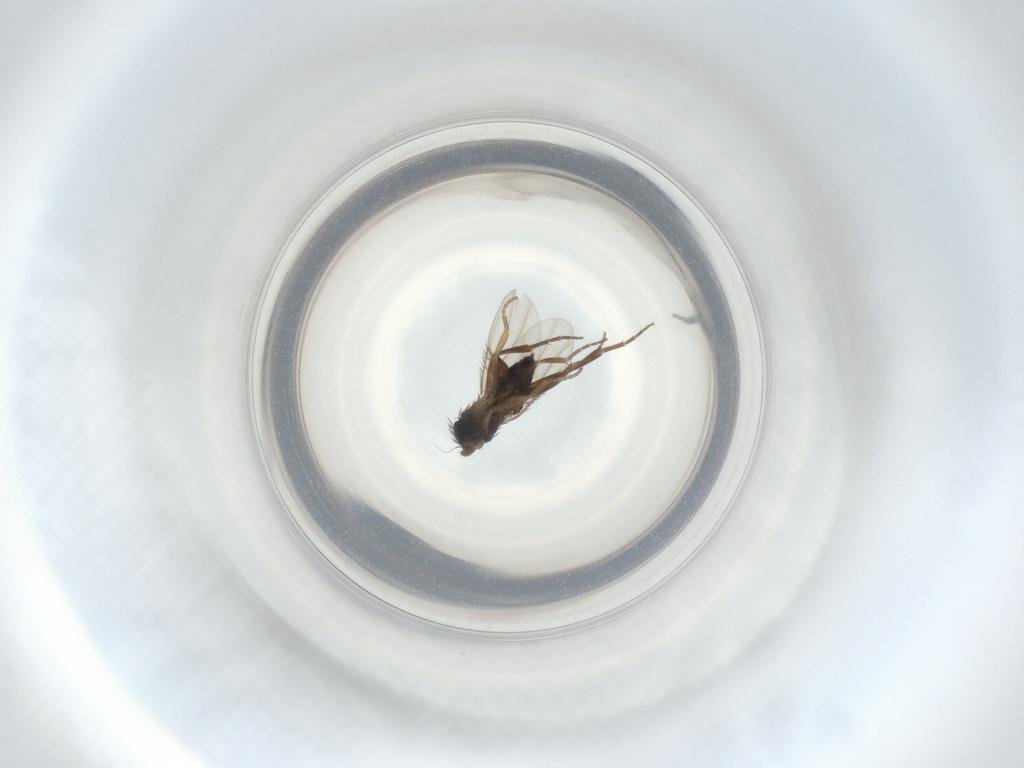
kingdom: Animalia
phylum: Arthropoda
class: Insecta
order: Diptera
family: Phoridae
